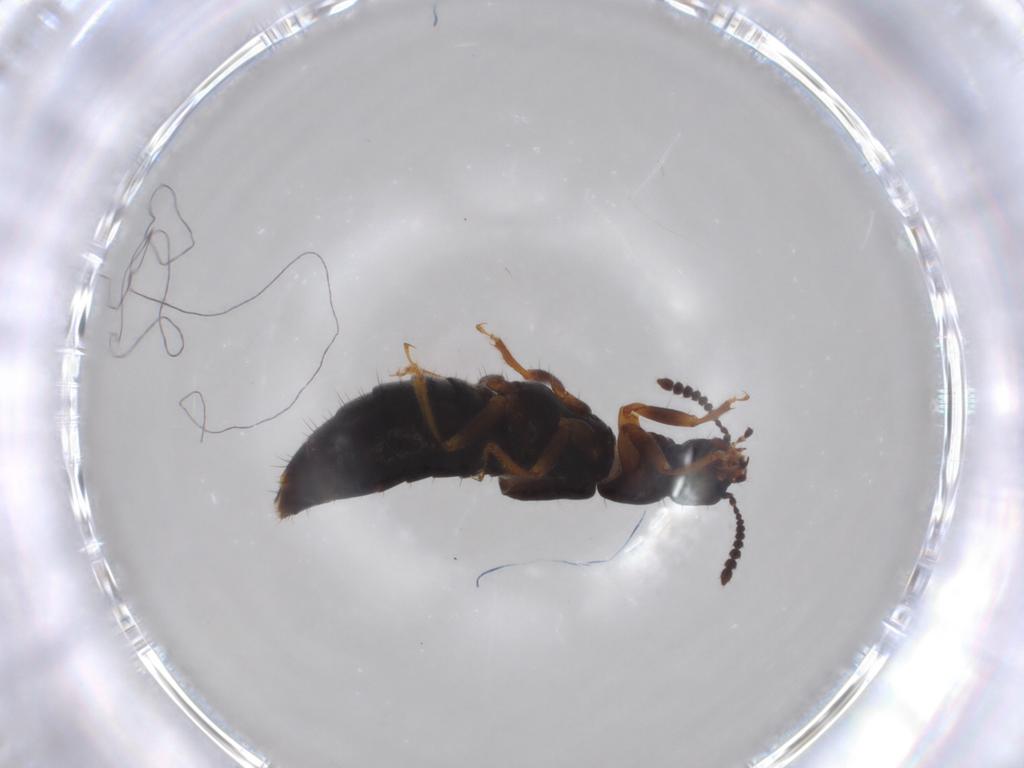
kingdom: Animalia
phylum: Arthropoda
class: Insecta
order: Coleoptera
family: Staphylinidae
